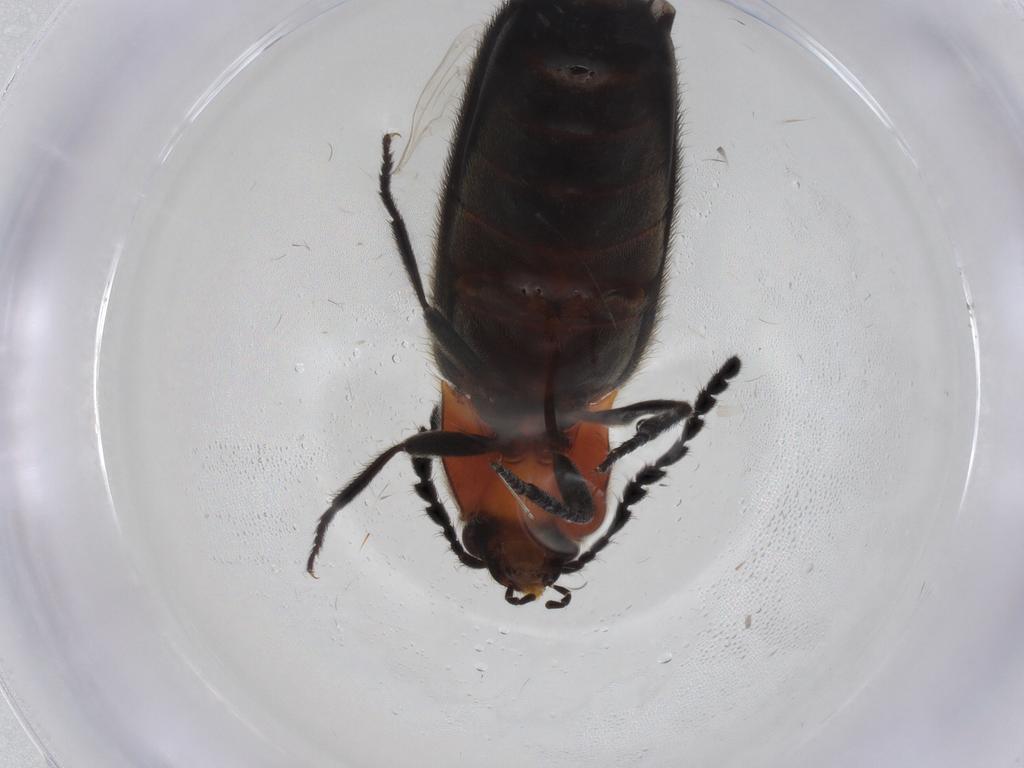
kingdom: Animalia
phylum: Arthropoda
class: Insecta
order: Coleoptera
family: Elateridae
